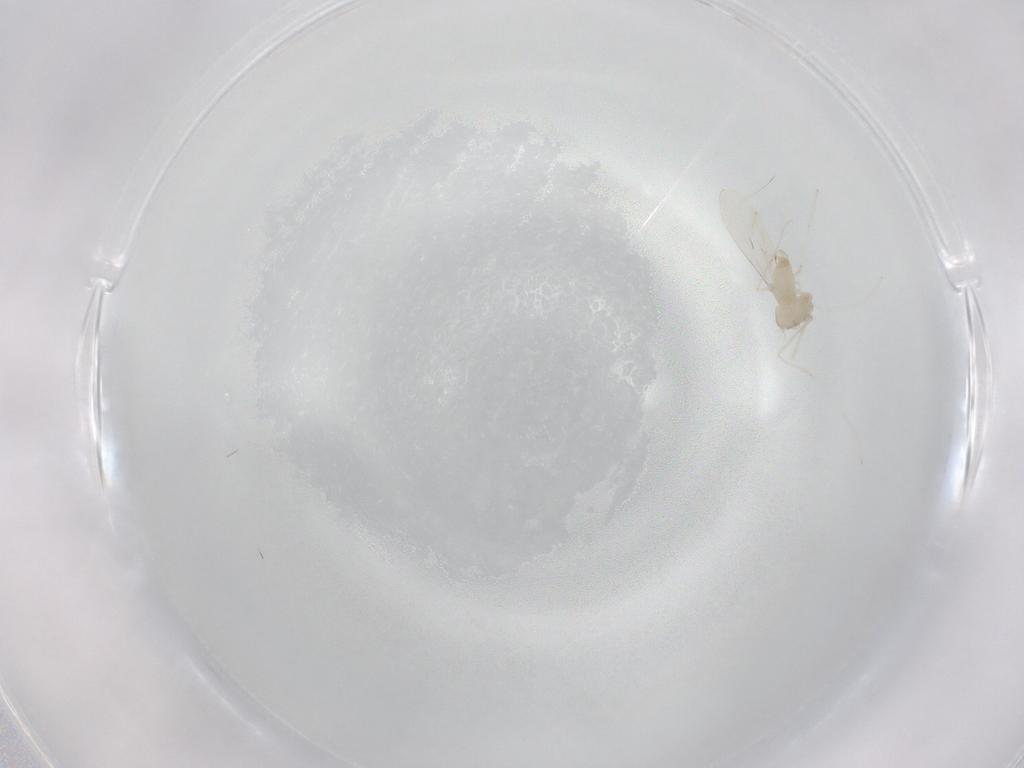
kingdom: Animalia
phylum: Arthropoda
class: Insecta
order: Diptera
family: Cecidomyiidae
